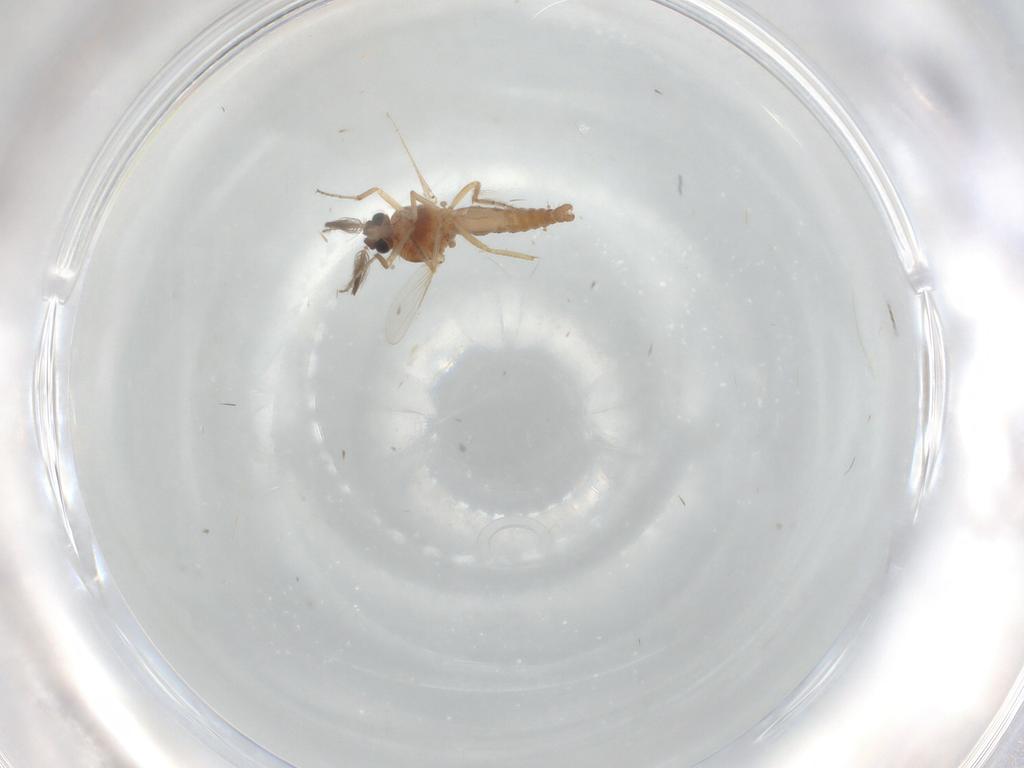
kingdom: Animalia
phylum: Arthropoda
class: Insecta
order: Diptera
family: Ceratopogonidae
